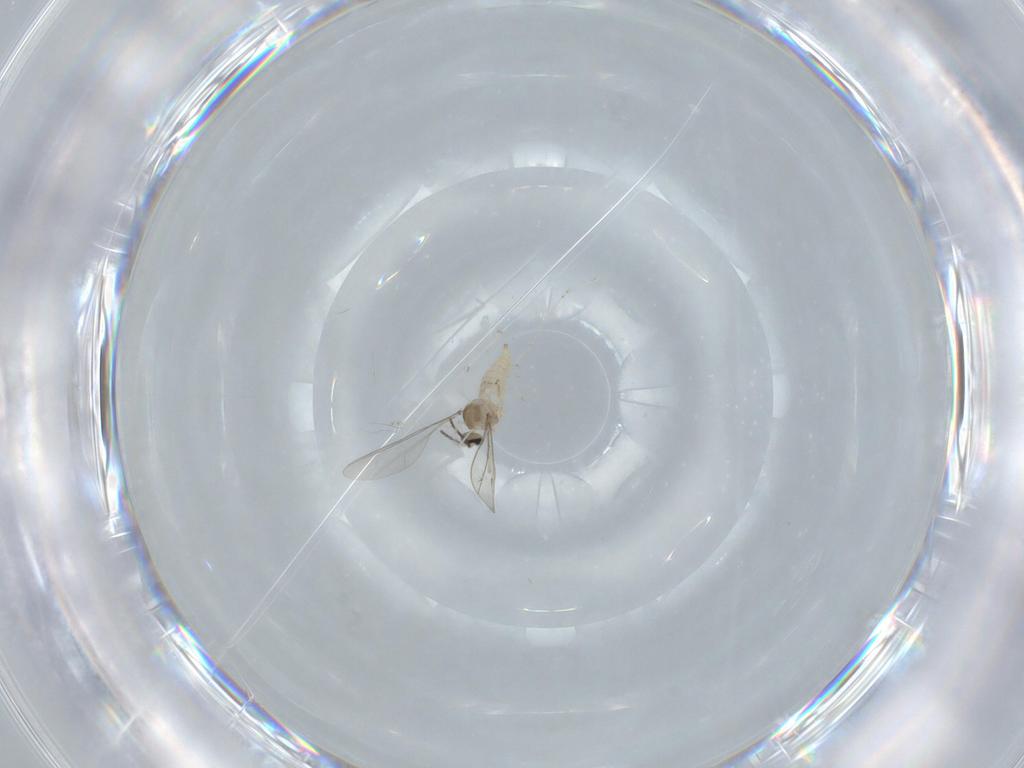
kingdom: Animalia
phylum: Arthropoda
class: Insecta
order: Diptera
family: Cecidomyiidae
